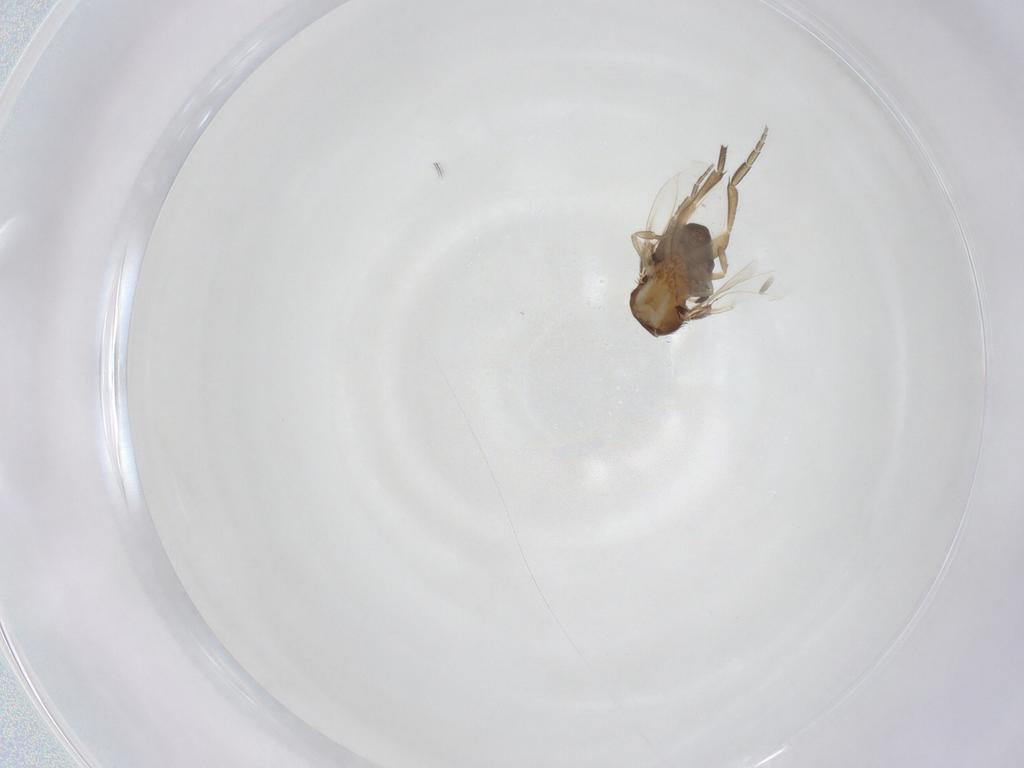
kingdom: Animalia
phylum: Arthropoda
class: Insecta
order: Diptera
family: Phoridae
